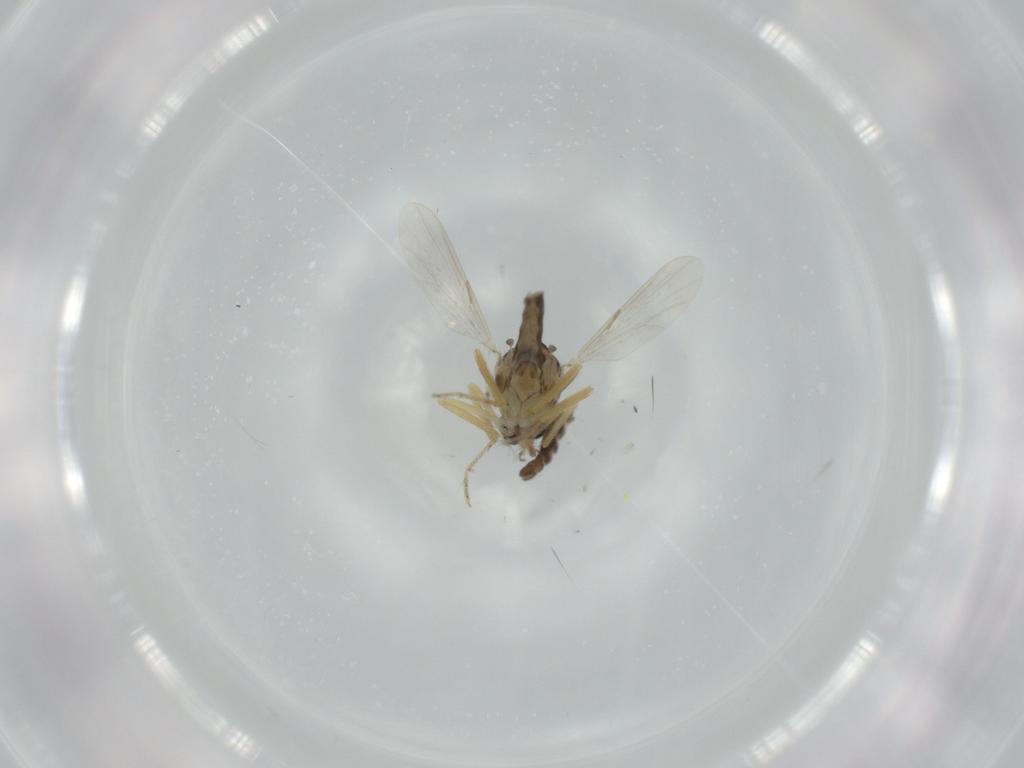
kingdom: Animalia
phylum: Arthropoda
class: Insecta
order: Diptera
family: Ceratopogonidae
